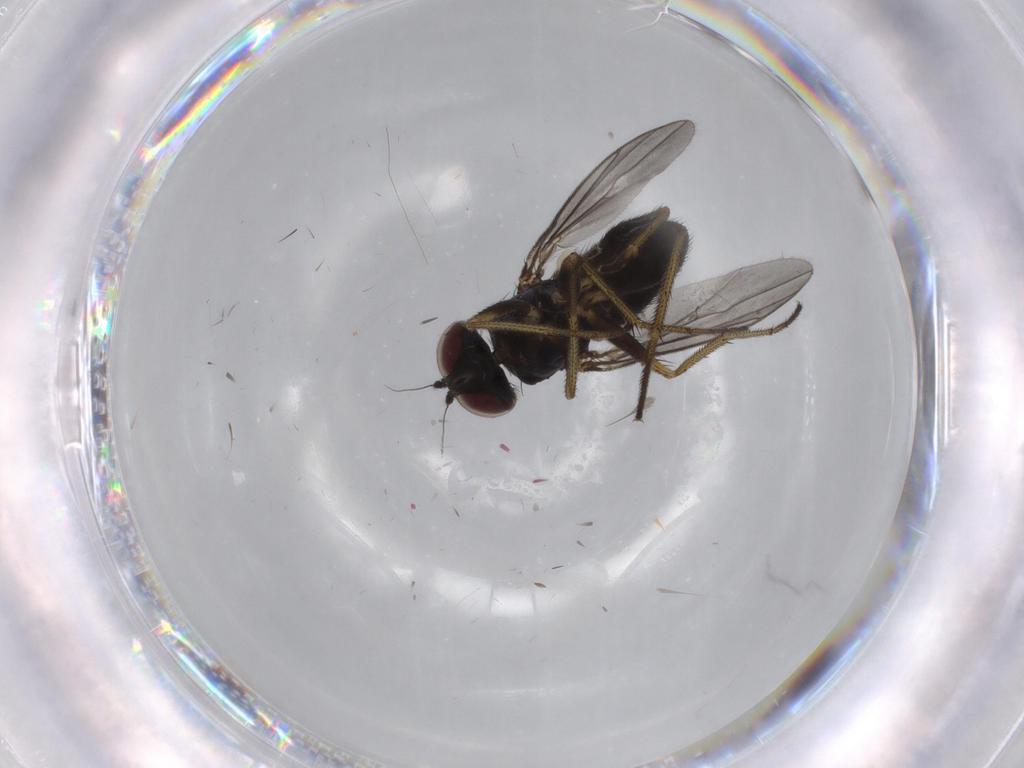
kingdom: Animalia
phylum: Arthropoda
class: Insecta
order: Diptera
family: Dolichopodidae
